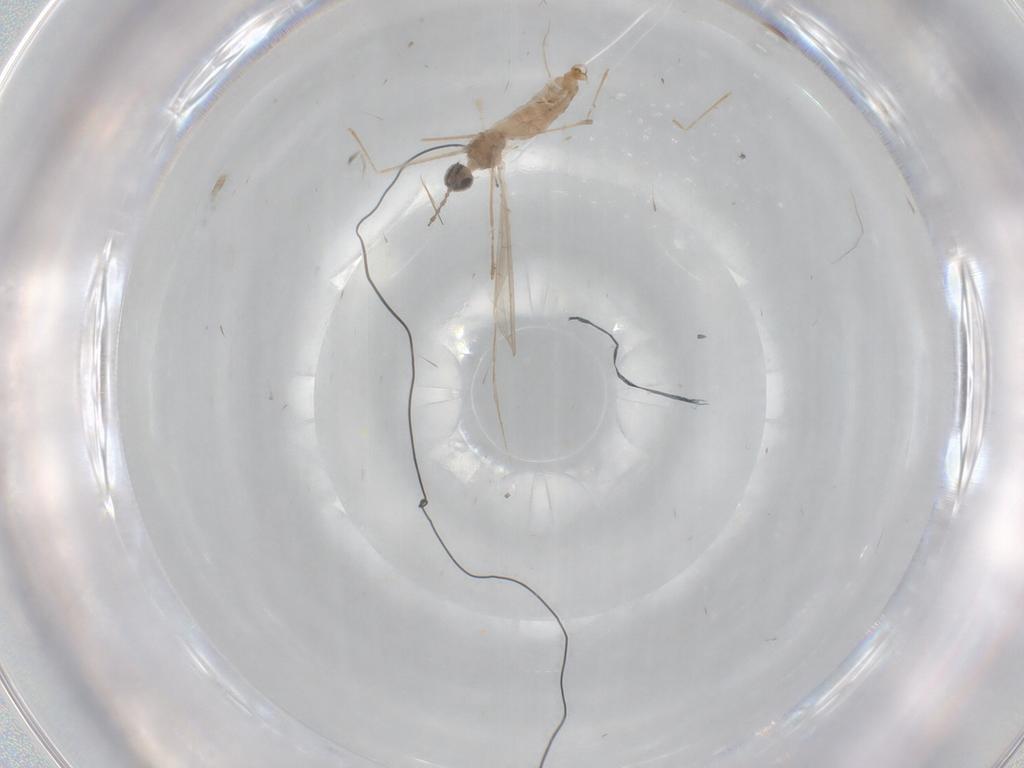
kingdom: Animalia
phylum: Arthropoda
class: Insecta
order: Diptera
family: Cecidomyiidae
